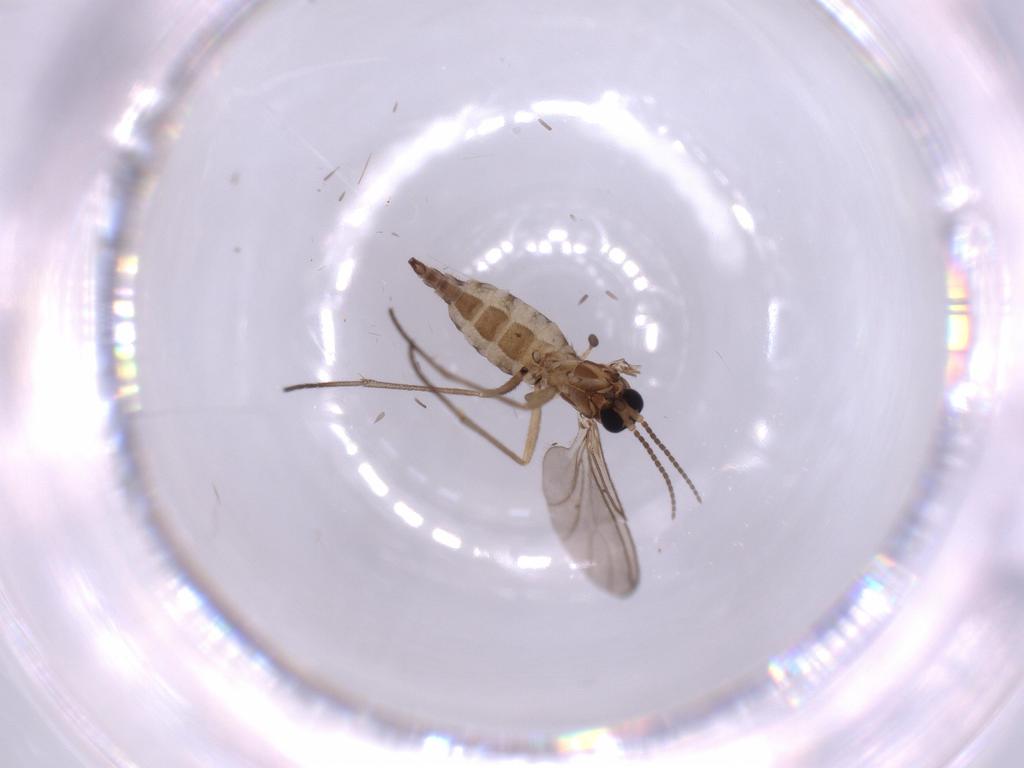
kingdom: Animalia
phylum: Arthropoda
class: Insecta
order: Diptera
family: Sciaridae
